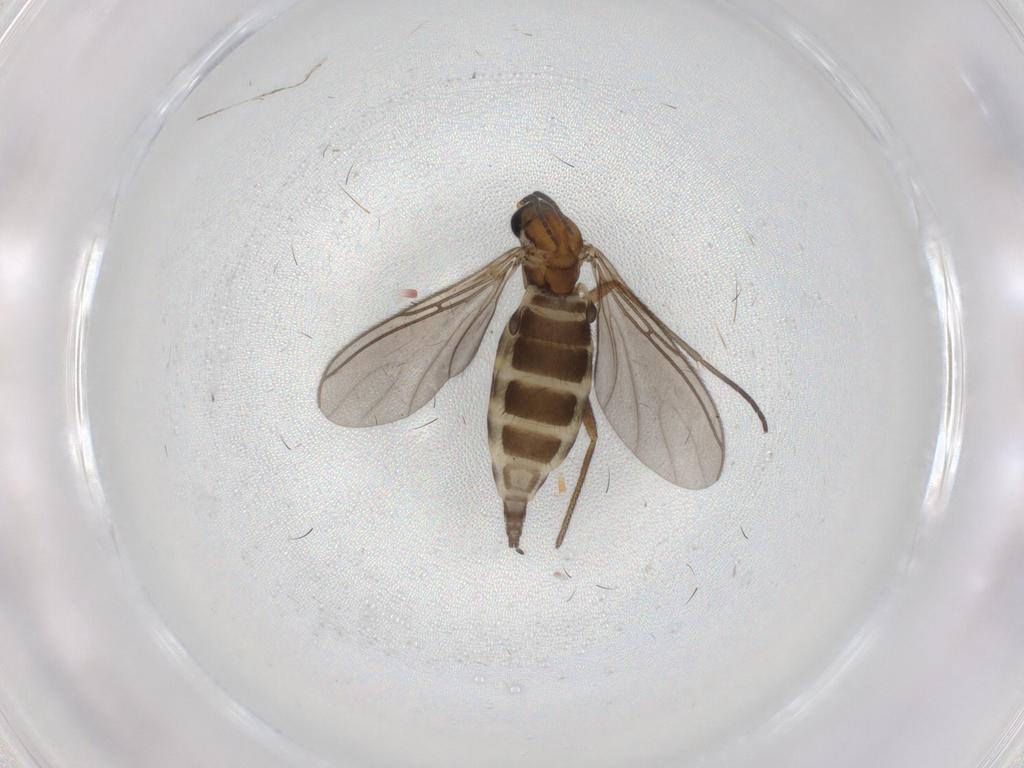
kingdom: Animalia
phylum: Arthropoda
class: Insecta
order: Diptera
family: Sciaridae
